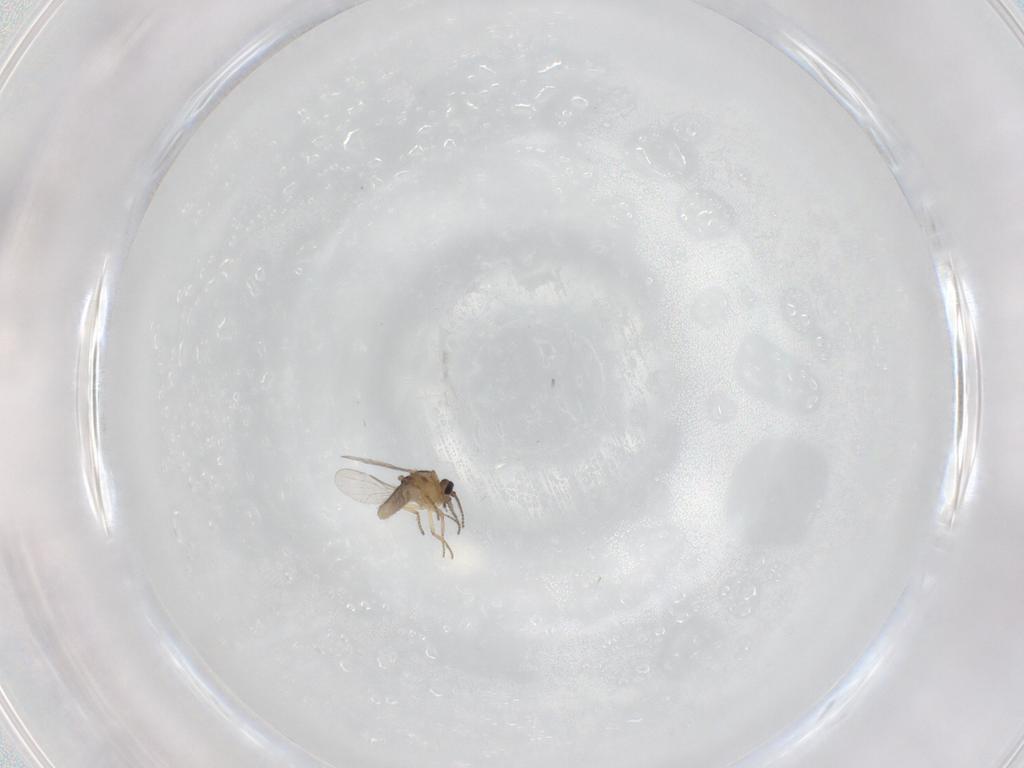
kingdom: Animalia
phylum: Arthropoda
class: Insecta
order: Diptera
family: Ceratopogonidae
